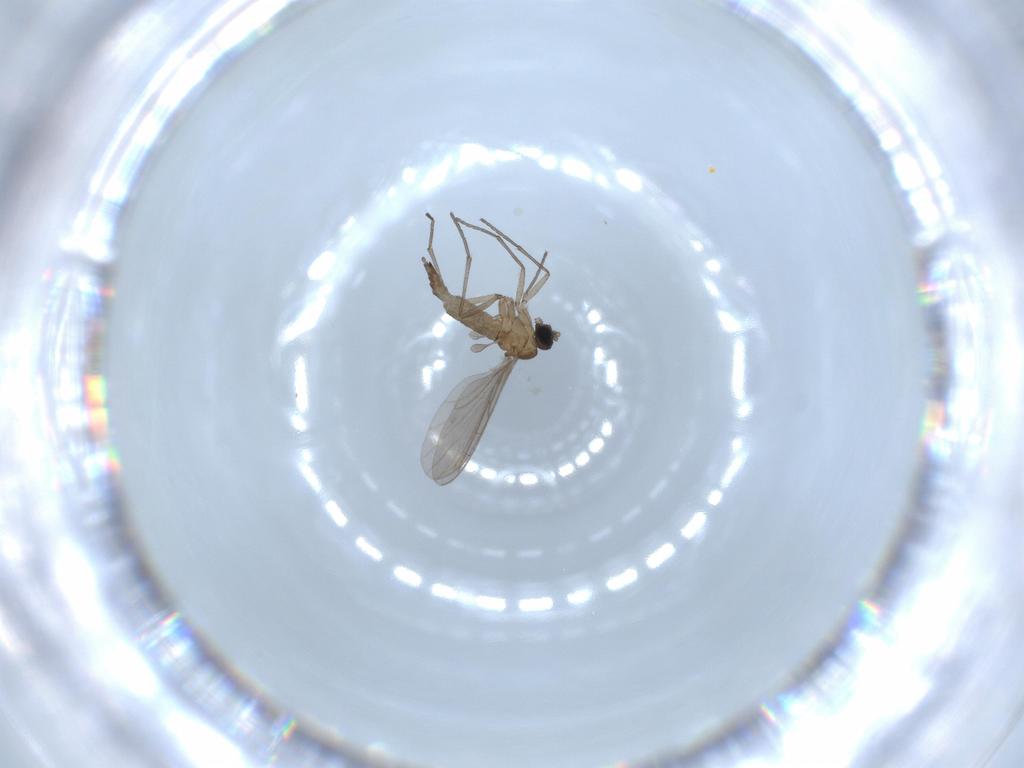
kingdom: Animalia
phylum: Arthropoda
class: Insecta
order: Diptera
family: Sciaridae
